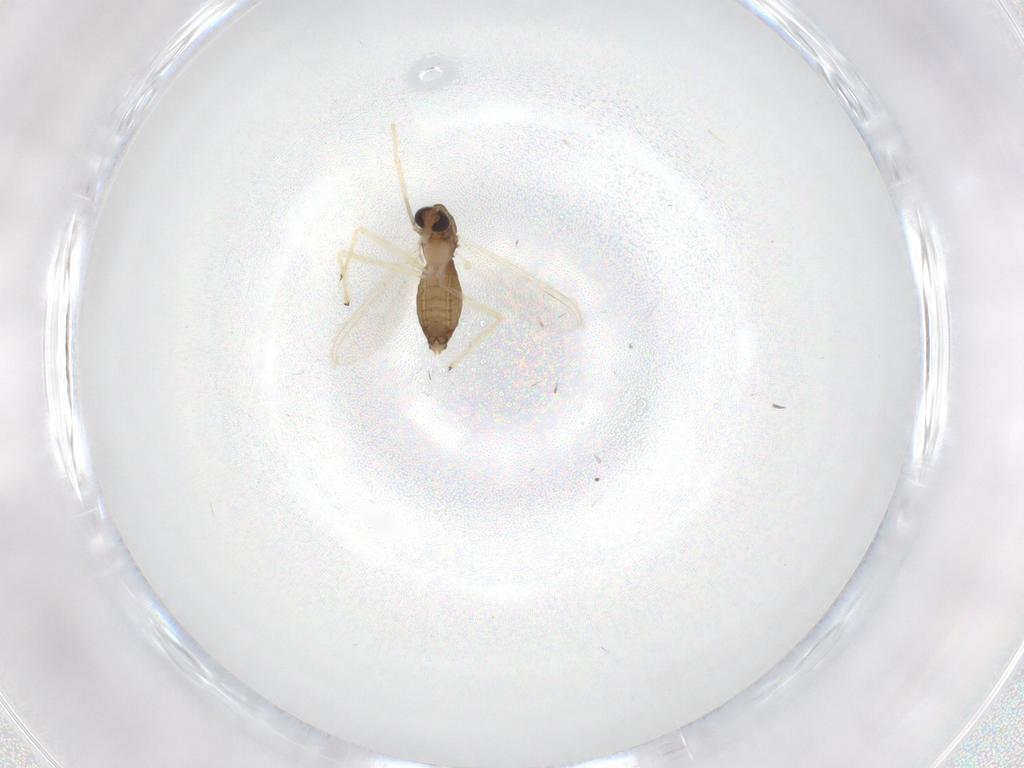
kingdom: Animalia
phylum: Arthropoda
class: Insecta
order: Diptera
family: Chironomidae
